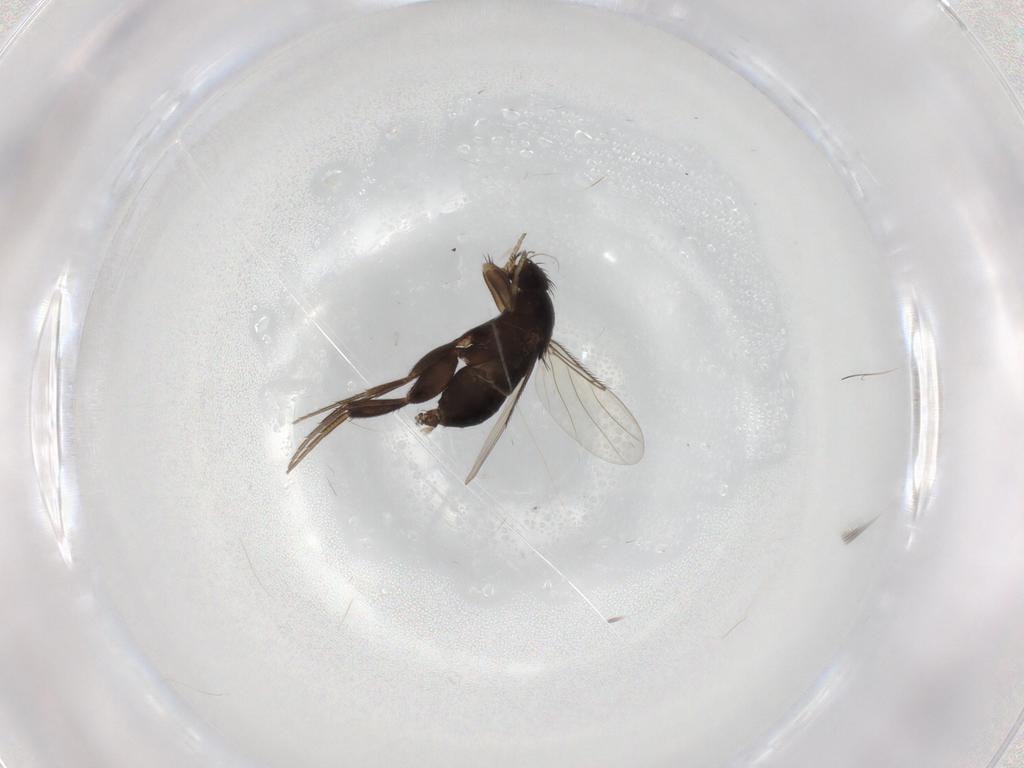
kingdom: Animalia
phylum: Arthropoda
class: Insecta
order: Diptera
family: Phoridae
